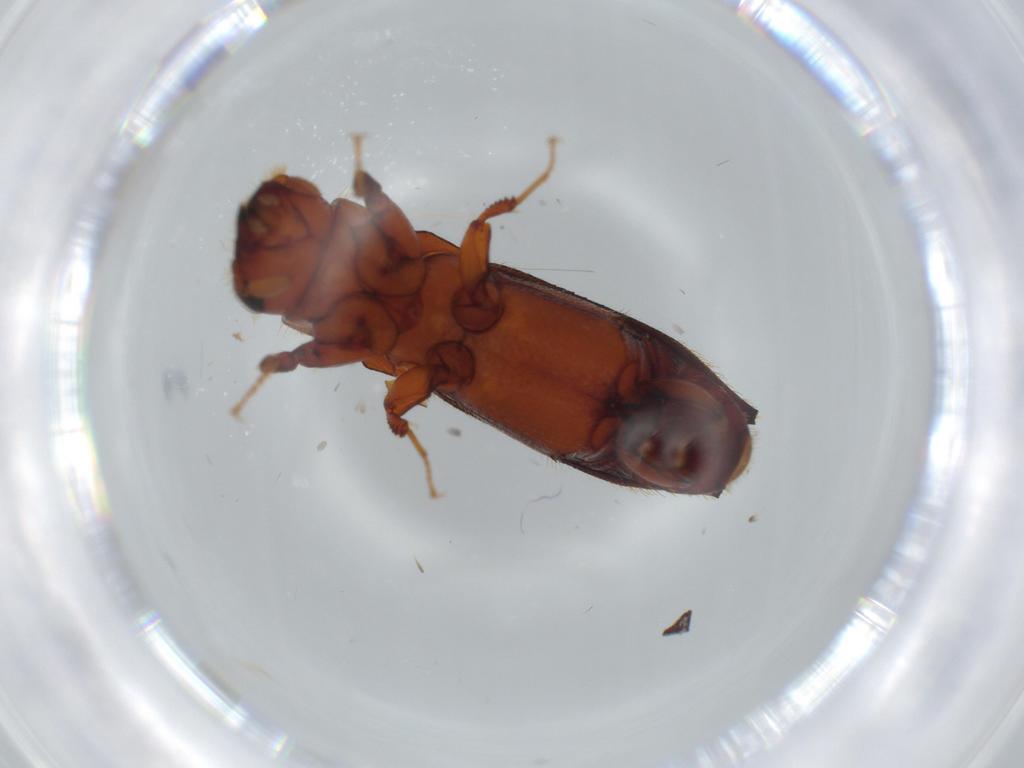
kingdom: Animalia
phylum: Arthropoda
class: Insecta
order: Coleoptera
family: Curculionidae
